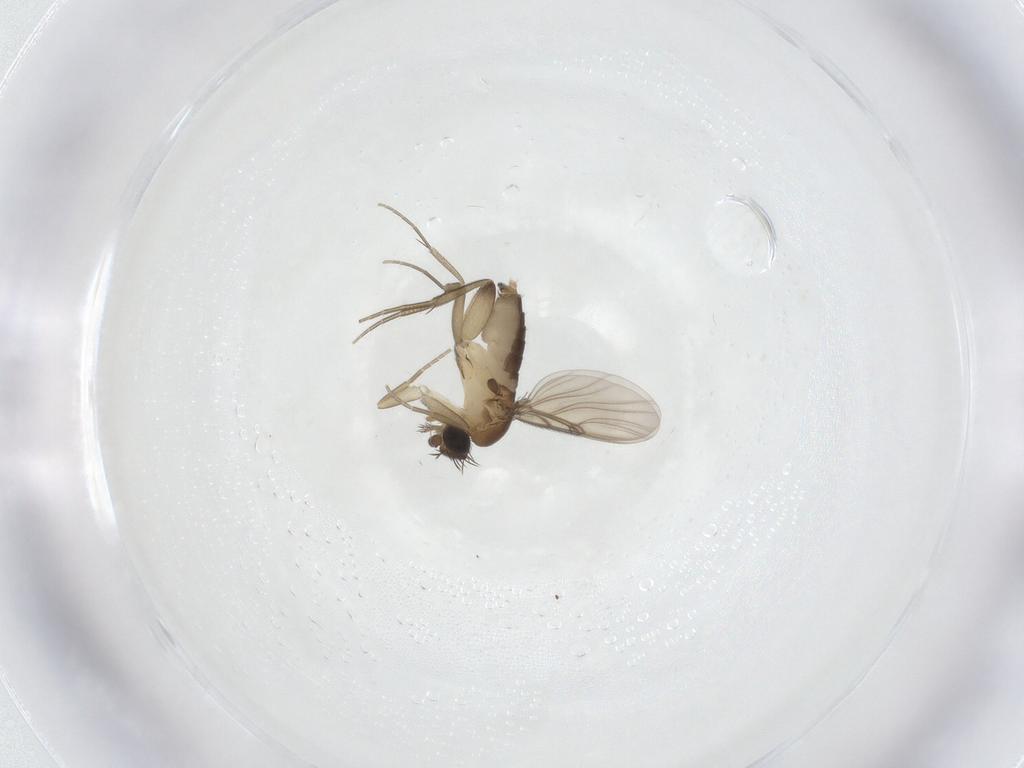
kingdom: Animalia
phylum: Arthropoda
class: Insecta
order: Diptera
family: Phoridae
